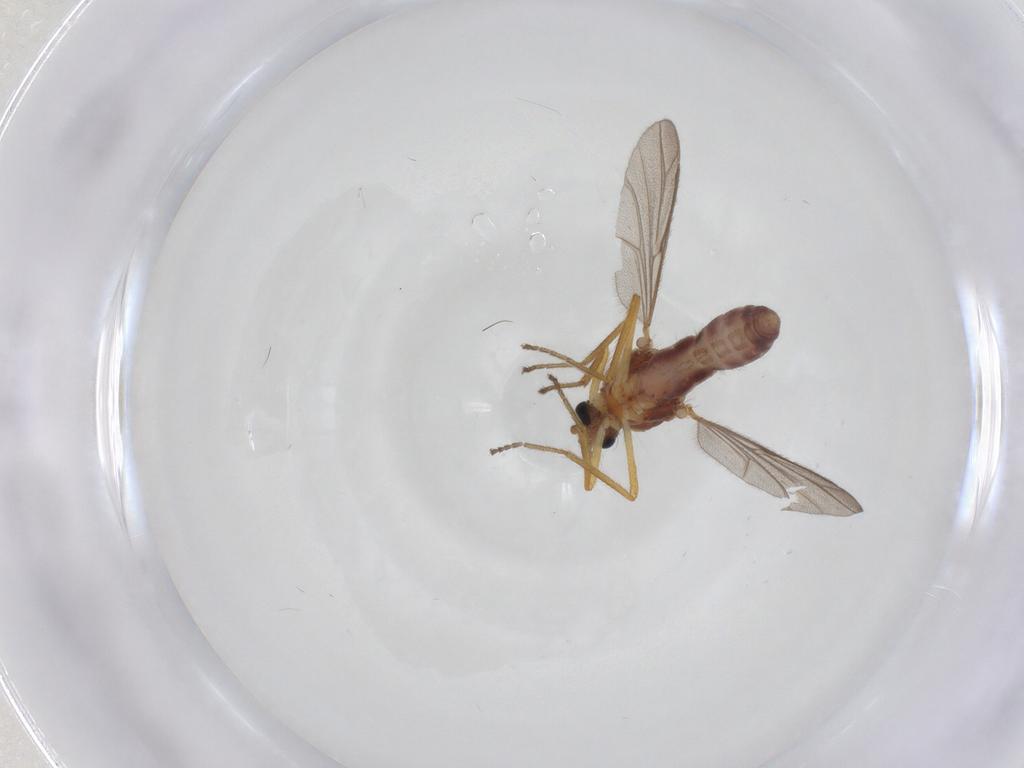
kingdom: Animalia
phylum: Arthropoda
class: Insecta
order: Diptera
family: Ceratopogonidae
